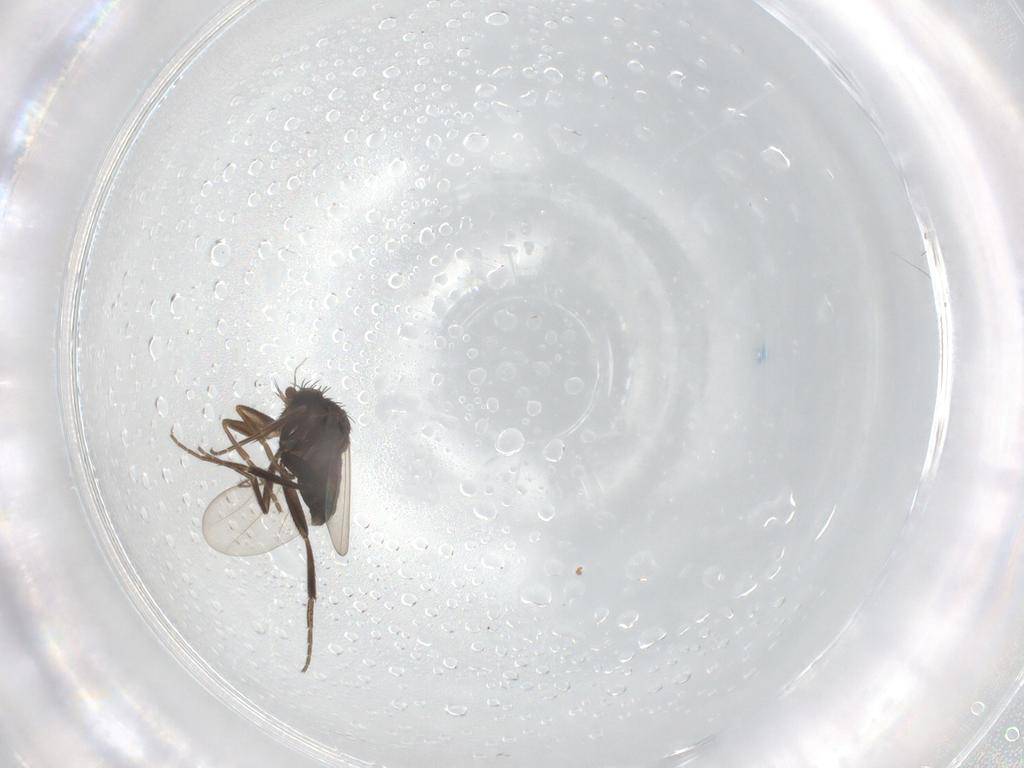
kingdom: Animalia
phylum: Arthropoda
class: Insecta
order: Diptera
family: Phoridae
